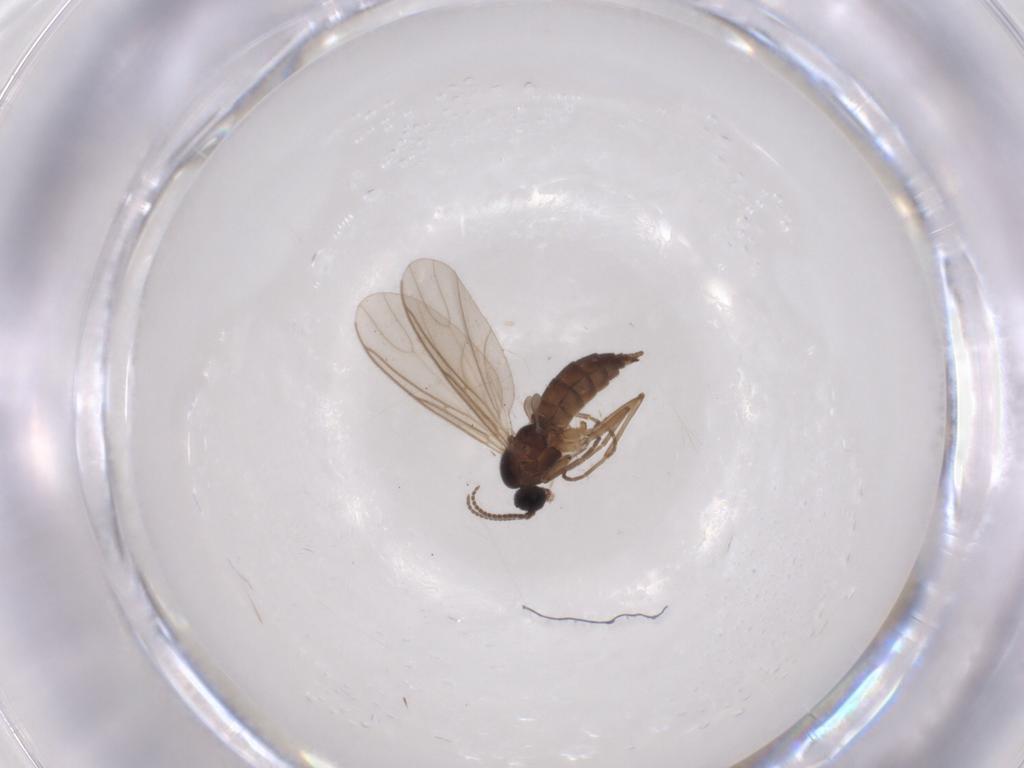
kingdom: Animalia
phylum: Arthropoda
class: Insecta
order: Diptera
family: Sciaridae
